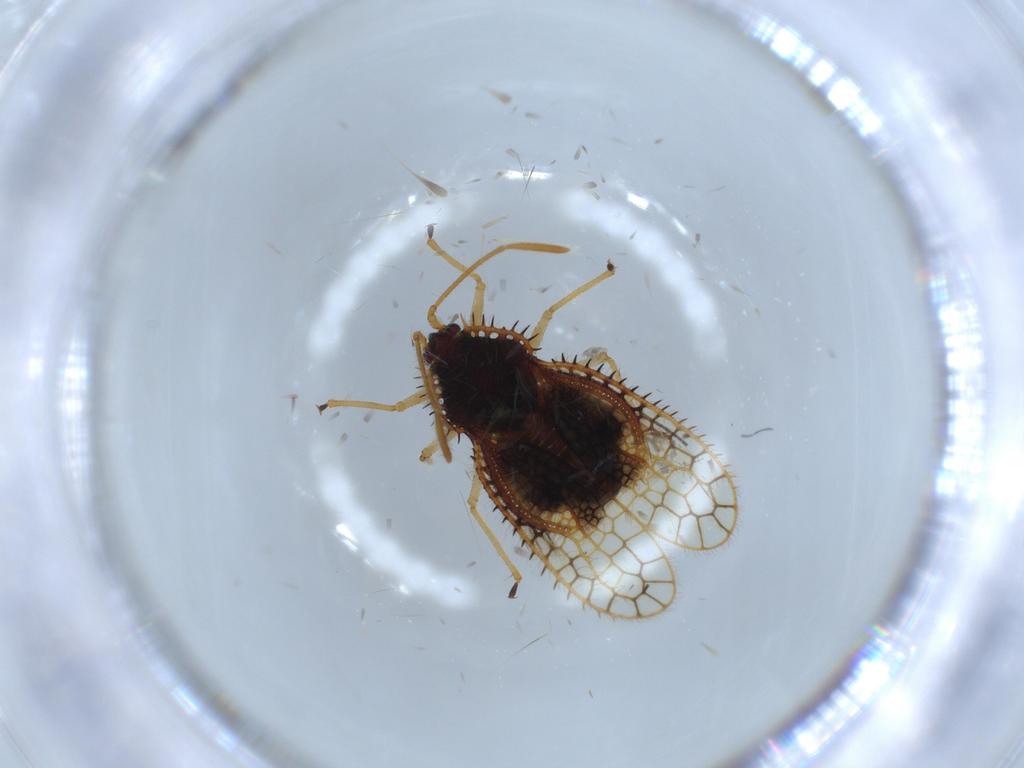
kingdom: Animalia
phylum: Arthropoda
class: Insecta
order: Hemiptera
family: Tingidae
